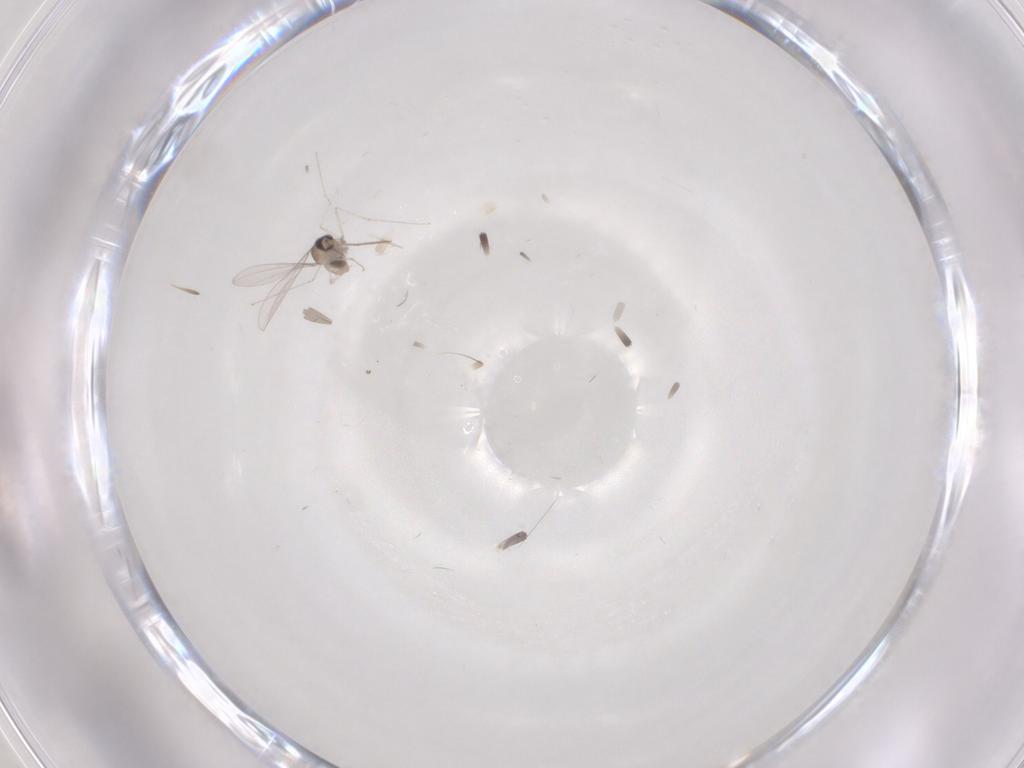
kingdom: Animalia
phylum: Arthropoda
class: Insecta
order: Diptera
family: Cecidomyiidae
